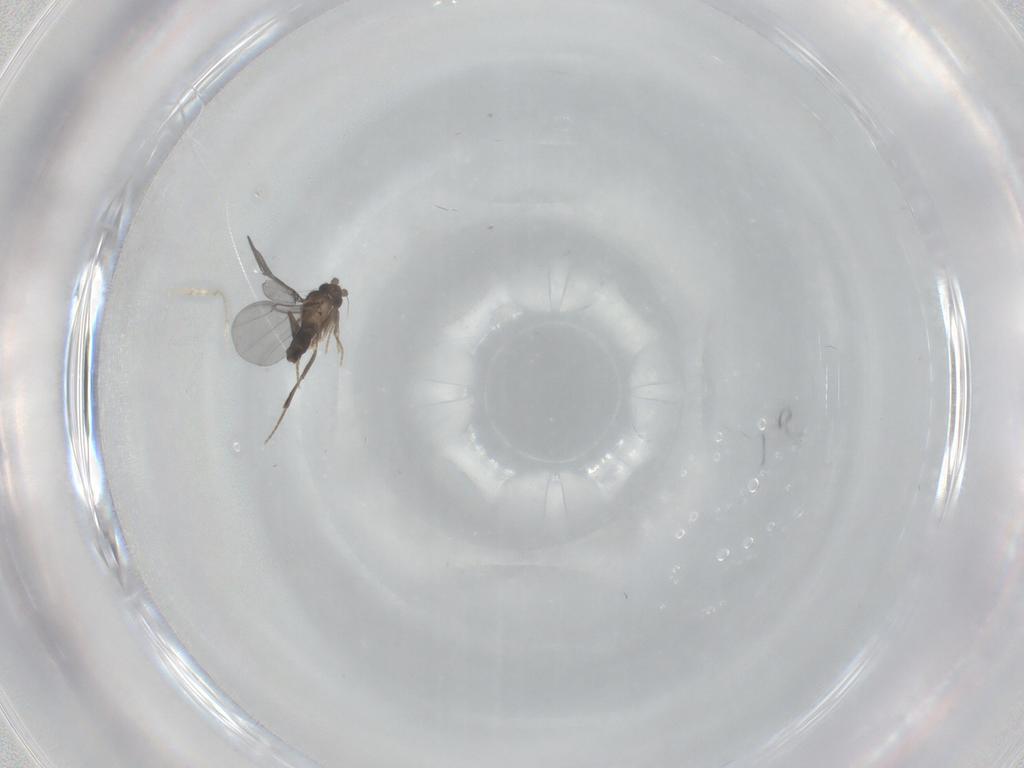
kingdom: Animalia
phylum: Arthropoda
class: Insecta
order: Diptera
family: Phoridae
